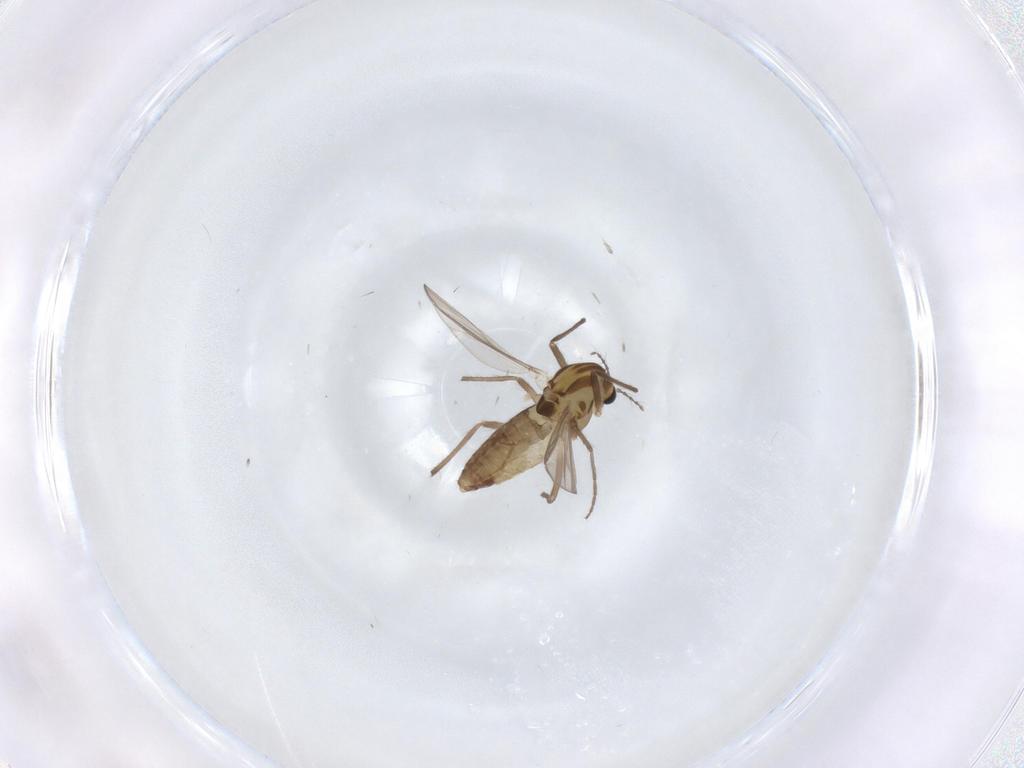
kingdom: Animalia
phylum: Arthropoda
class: Insecta
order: Diptera
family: Chironomidae
